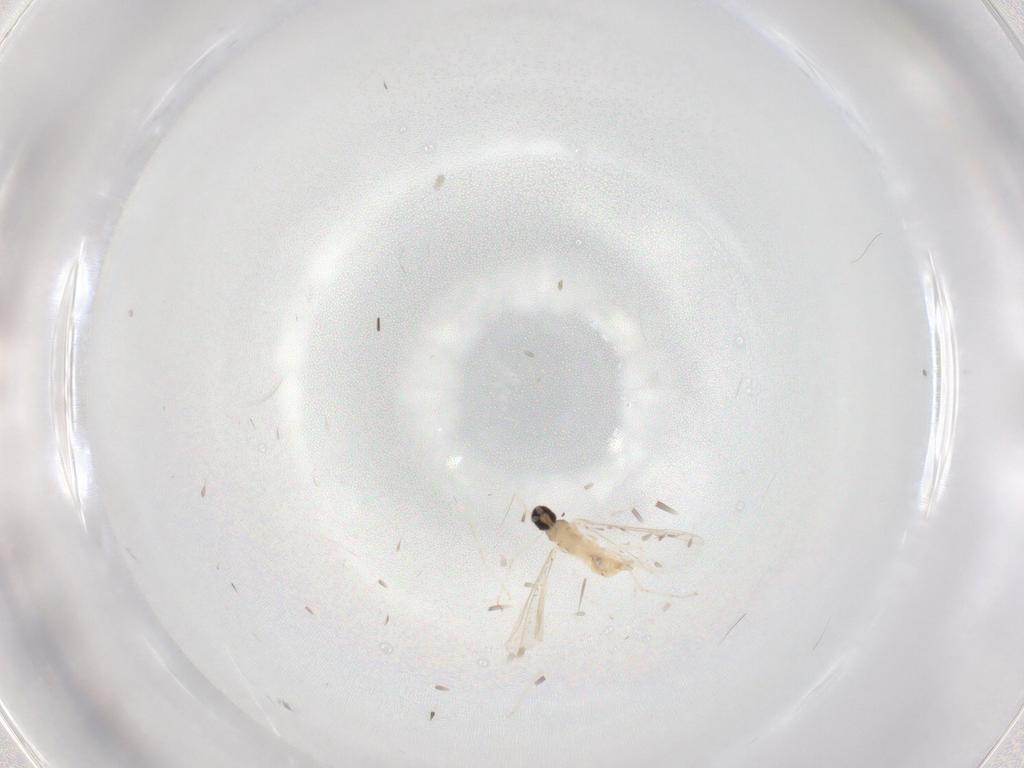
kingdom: Animalia
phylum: Arthropoda
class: Insecta
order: Diptera
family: Cecidomyiidae
